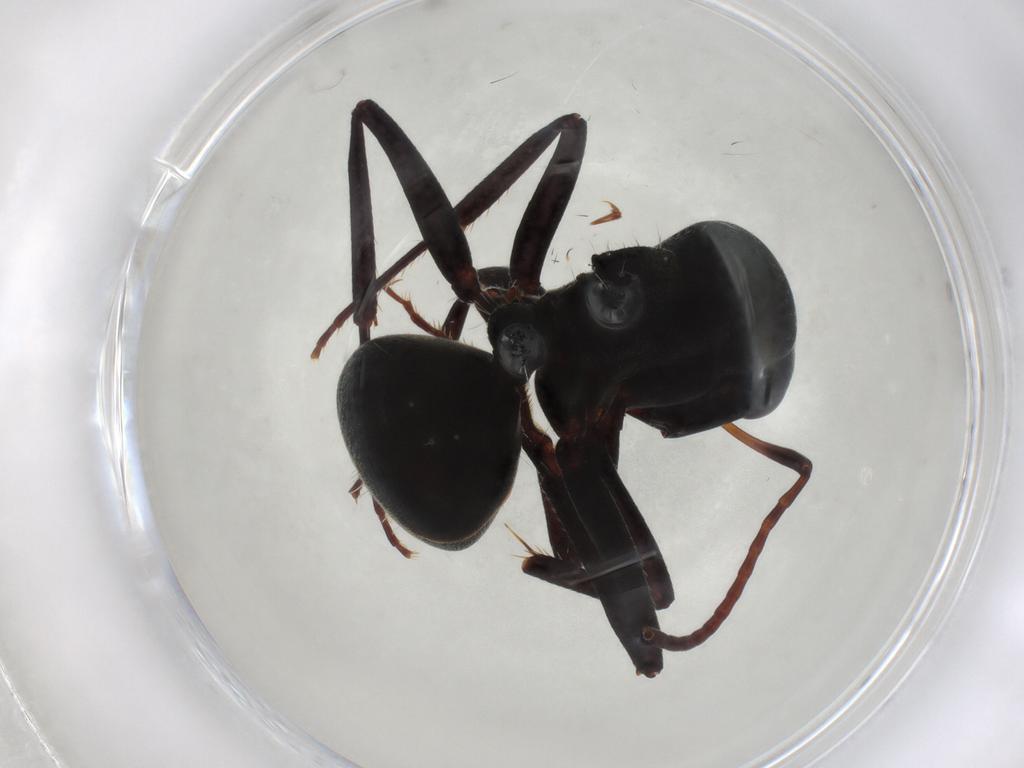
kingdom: Animalia
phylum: Arthropoda
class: Insecta
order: Hymenoptera
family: Formicidae
